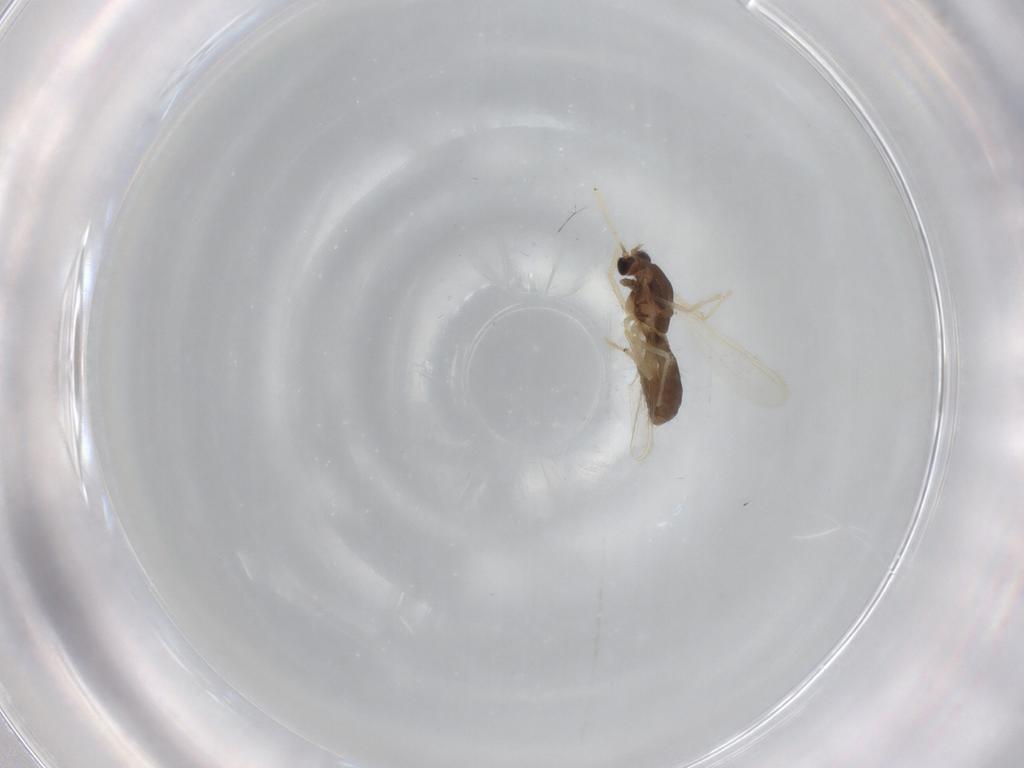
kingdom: Animalia
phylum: Arthropoda
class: Insecta
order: Diptera
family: Chironomidae
